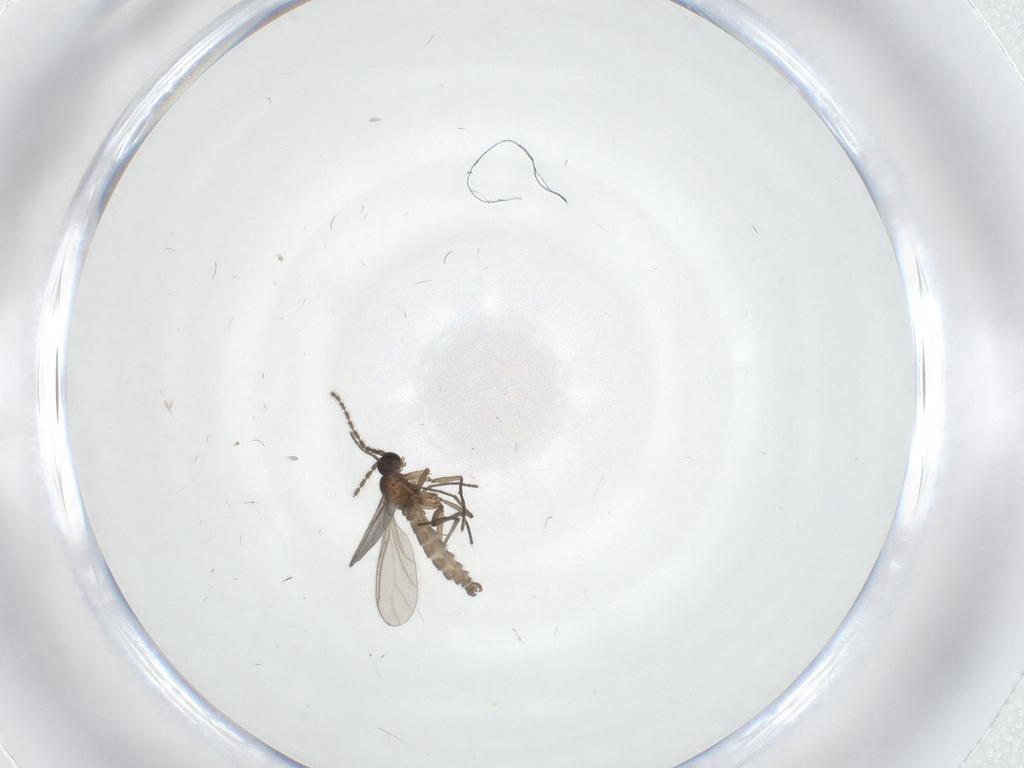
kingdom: Animalia
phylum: Arthropoda
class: Insecta
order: Diptera
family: Sciaridae
